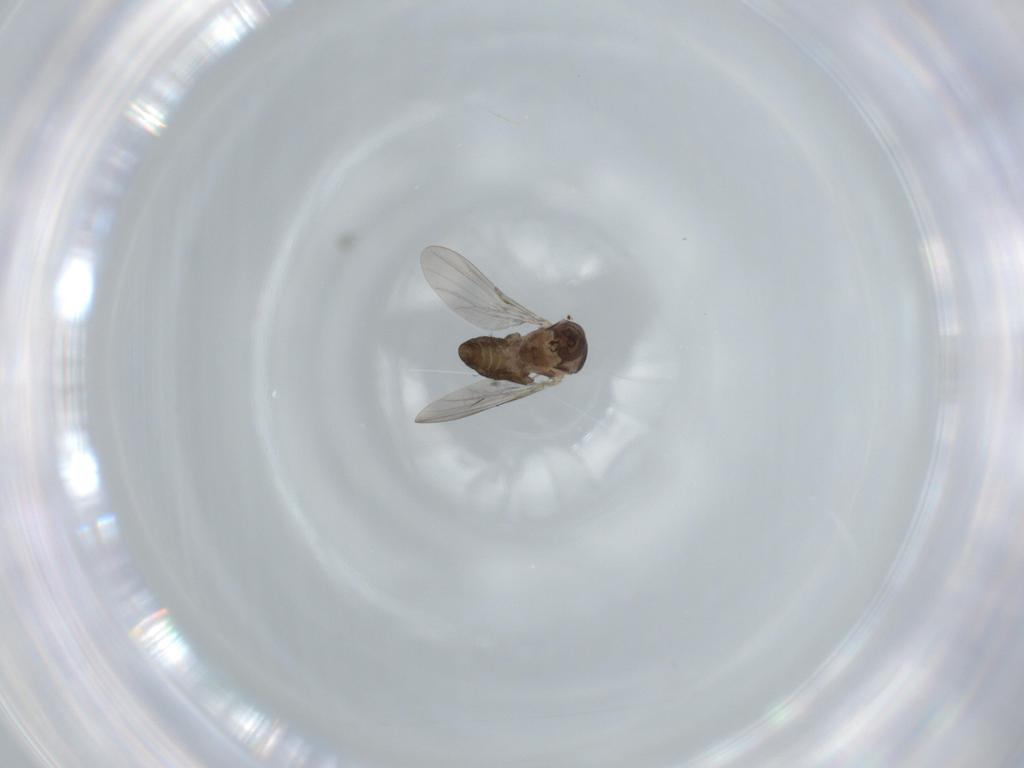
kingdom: Animalia
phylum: Arthropoda
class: Insecta
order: Diptera
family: Ceratopogonidae
